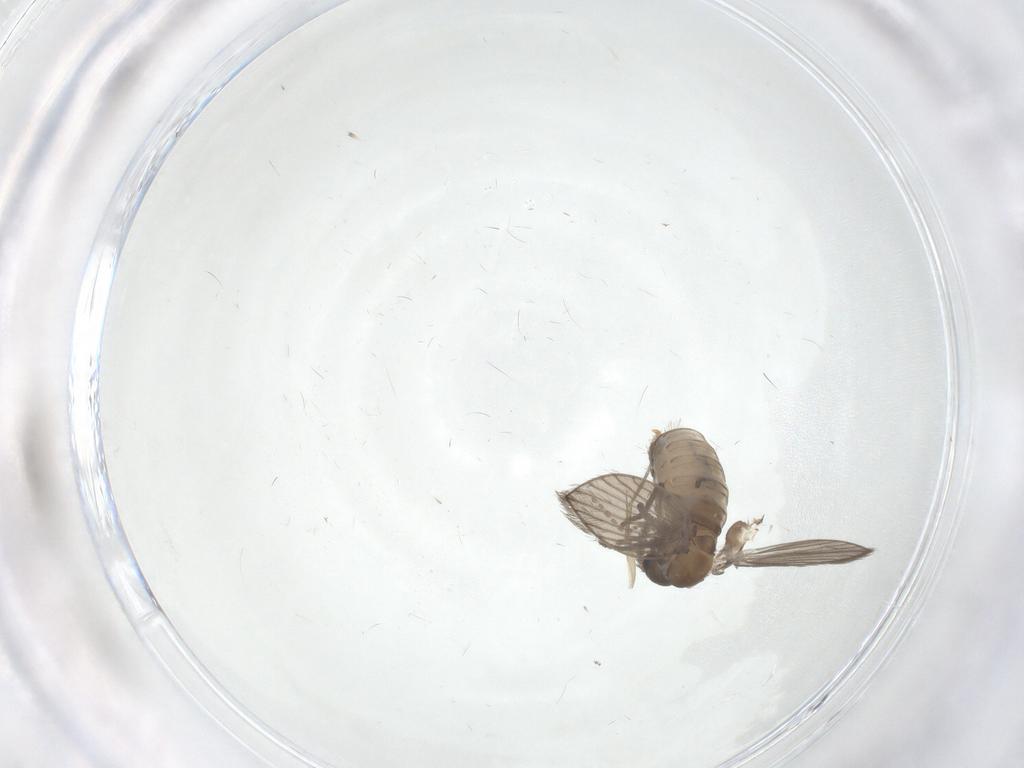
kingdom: Animalia
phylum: Arthropoda
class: Insecta
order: Diptera
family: Psychodidae
